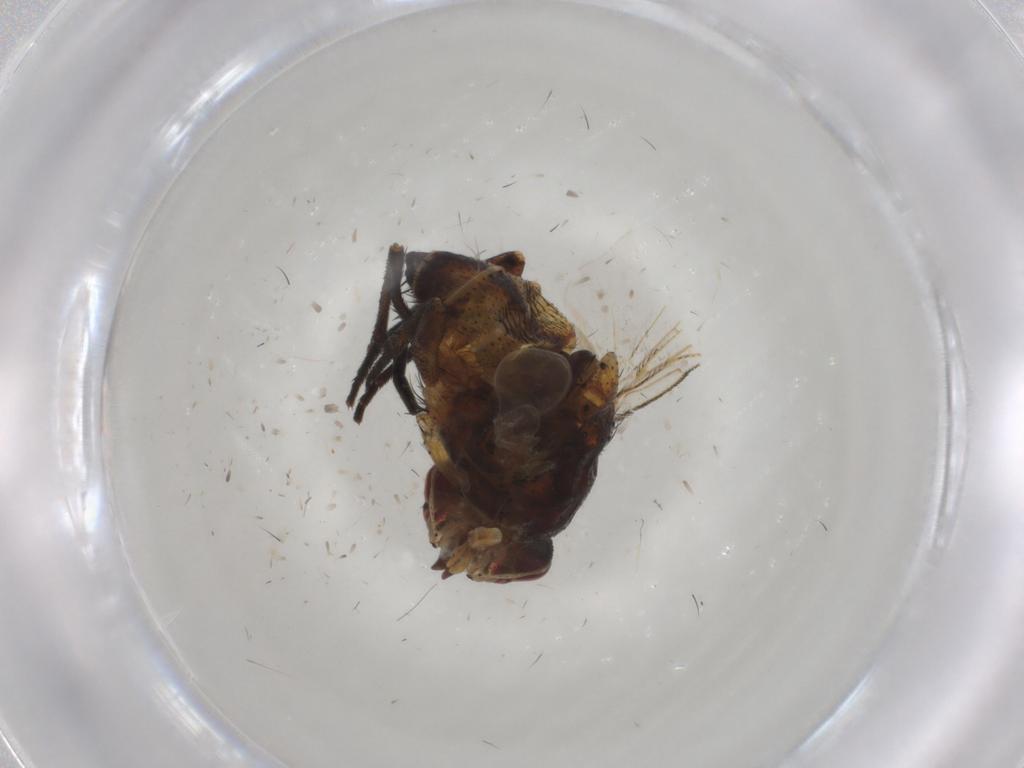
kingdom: Animalia
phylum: Arthropoda
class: Insecta
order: Diptera
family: Glossinidae
